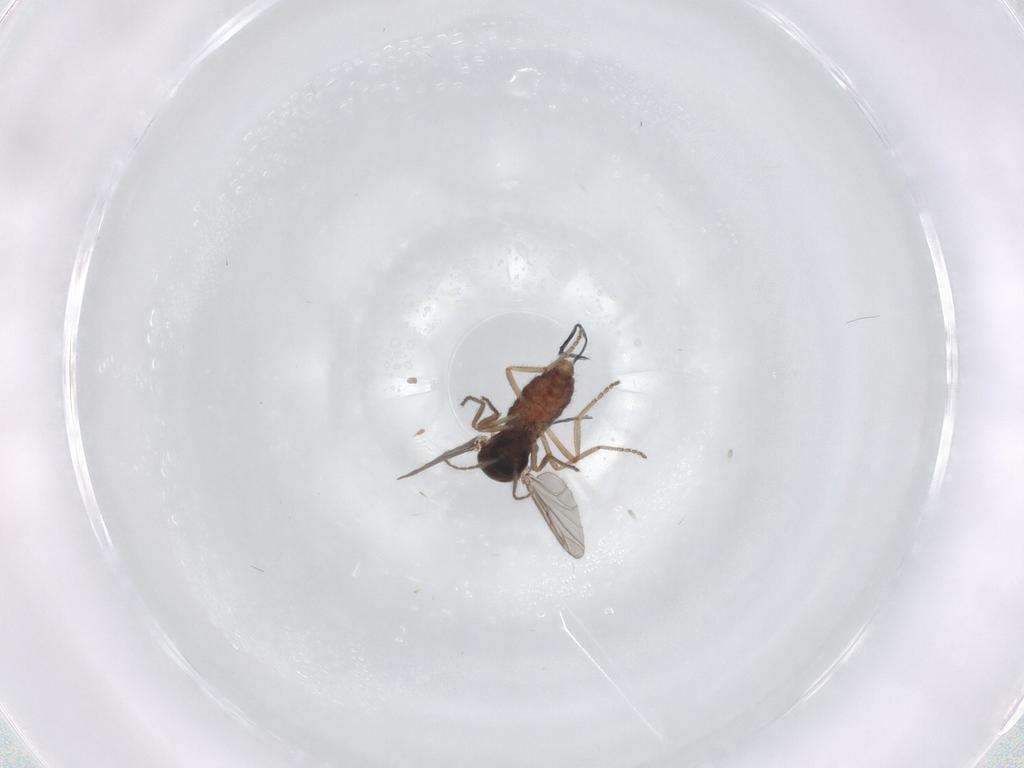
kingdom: Animalia
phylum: Arthropoda
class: Insecta
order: Diptera
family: Ceratopogonidae
